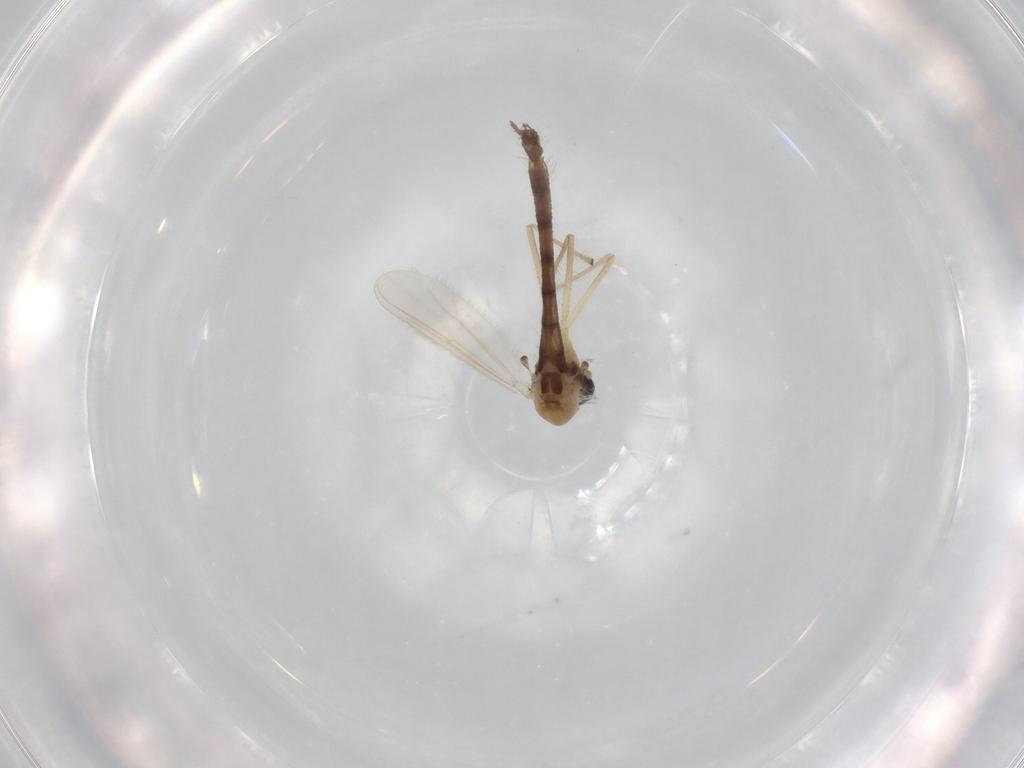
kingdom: Animalia
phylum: Arthropoda
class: Insecta
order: Diptera
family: Chironomidae
